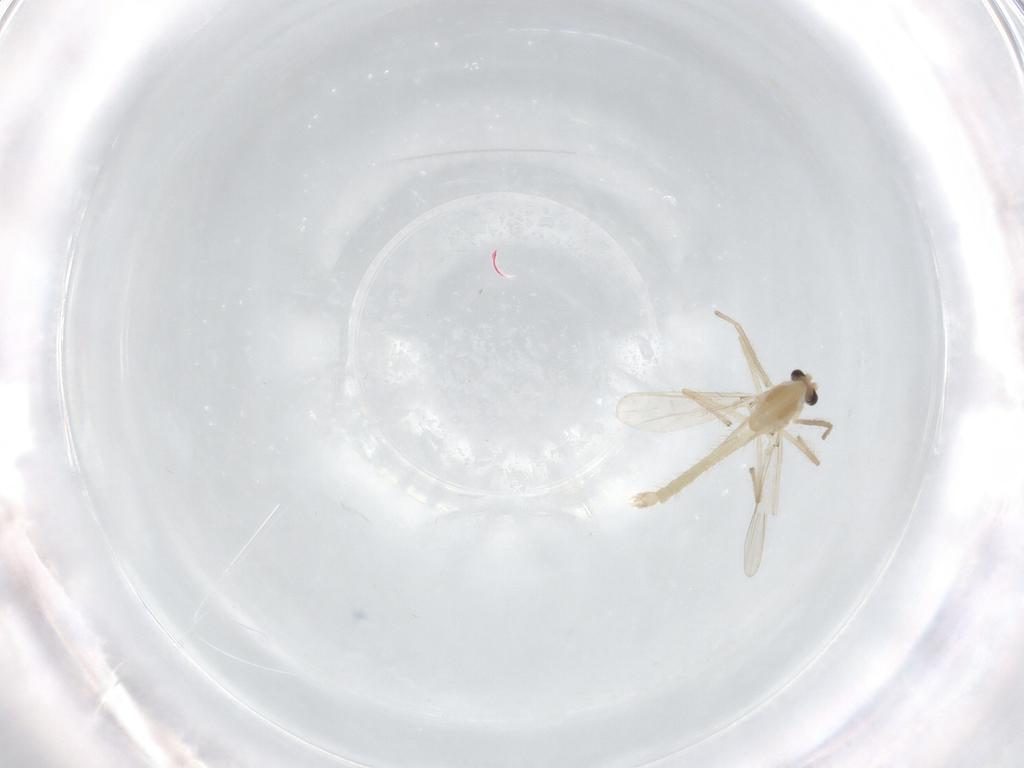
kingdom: Animalia
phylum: Arthropoda
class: Insecta
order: Diptera
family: Chironomidae
